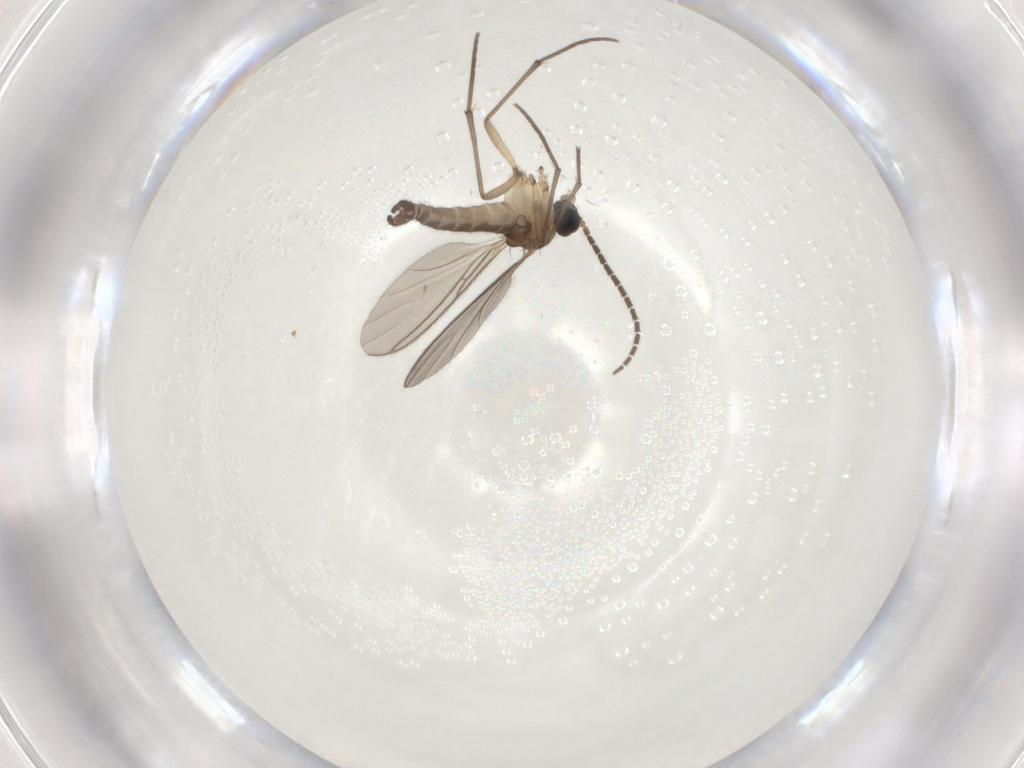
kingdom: Animalia
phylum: Arthropoda
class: Insecta
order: Diptera
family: Sciaridae
